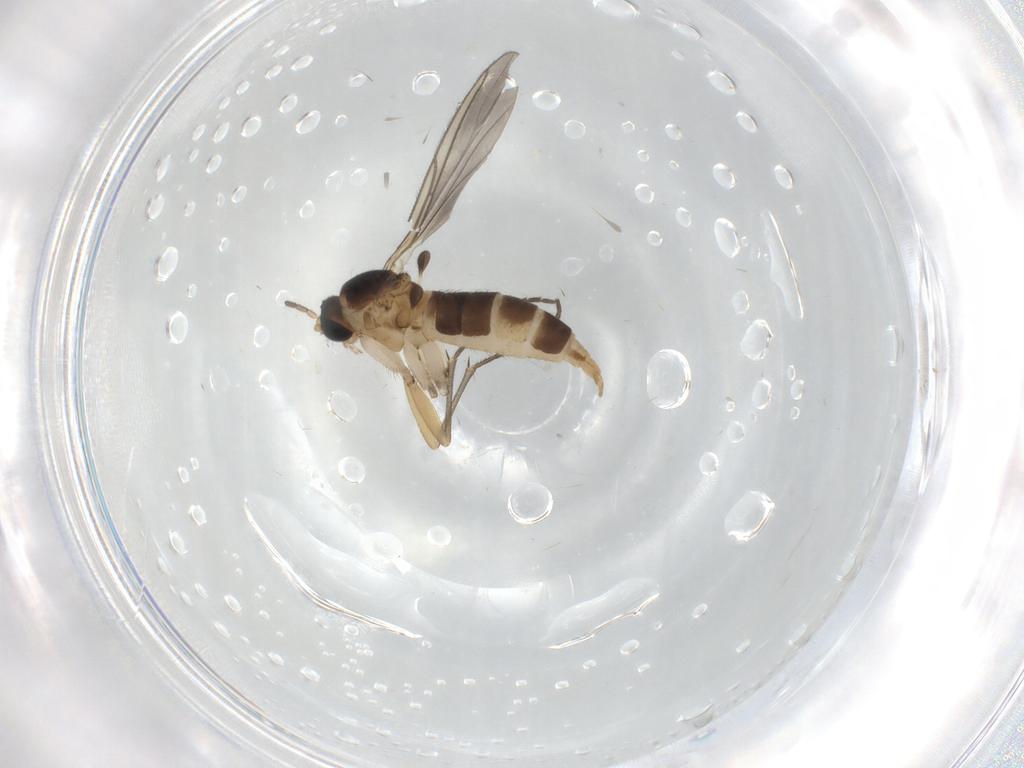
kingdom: Animalia
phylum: Arthropoda
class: Insecta
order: Diptera
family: Sciaridae
